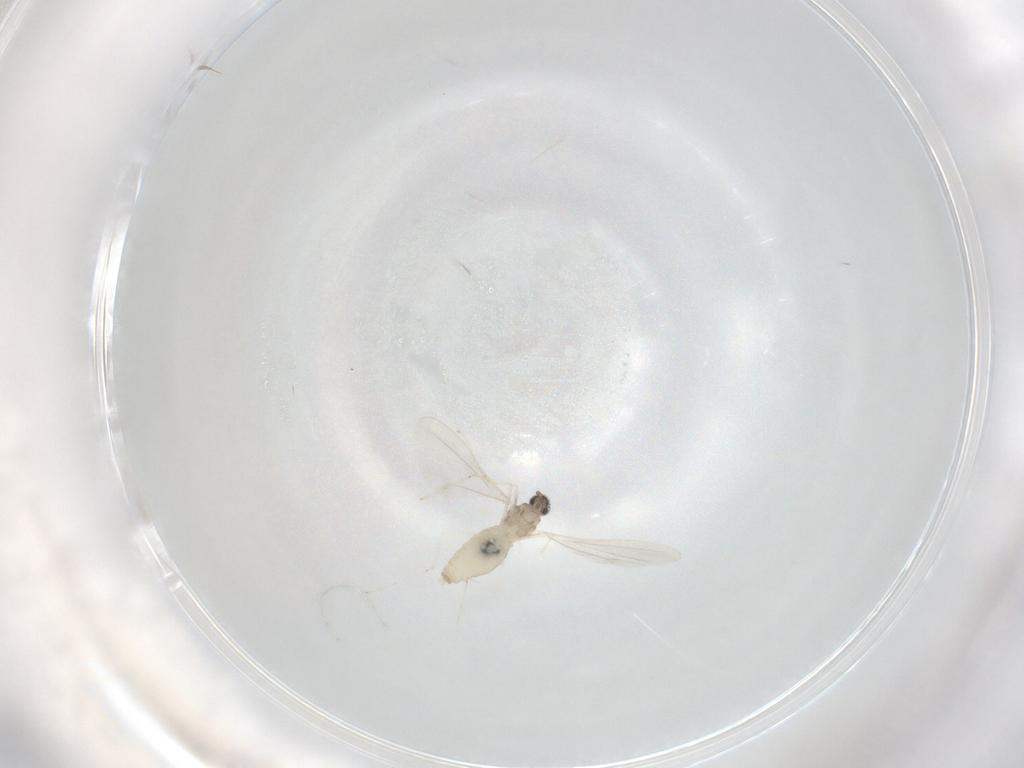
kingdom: Animalia
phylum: Arthropoda
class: Insecta
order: Diptera
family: Cecidomyiidae
